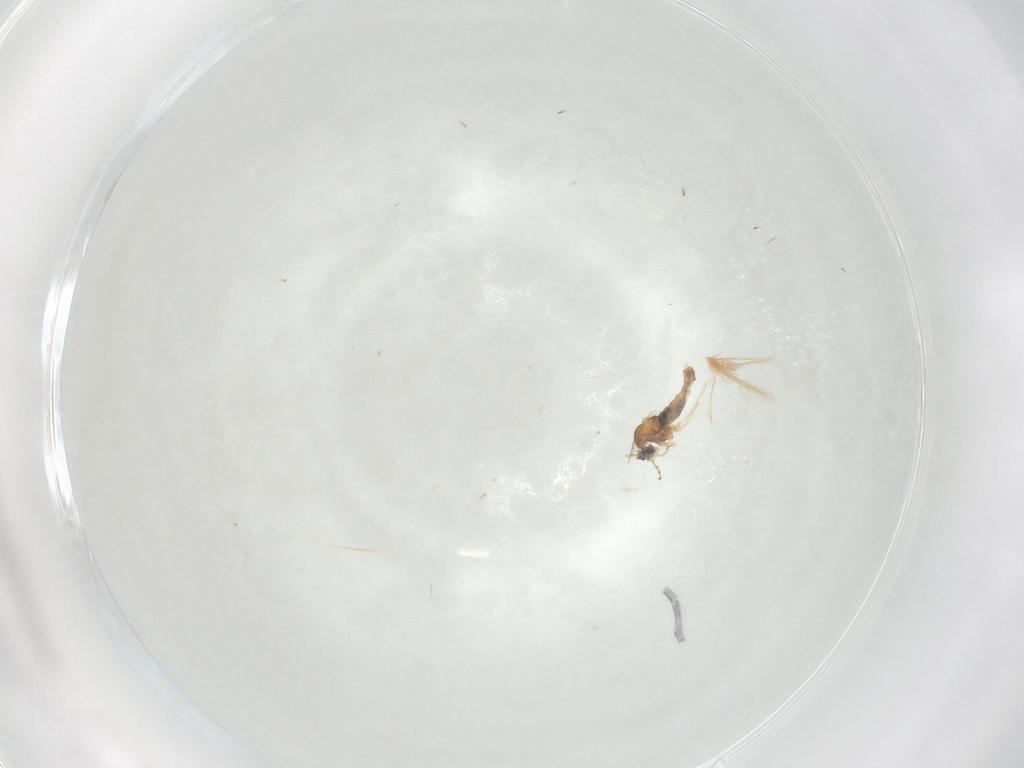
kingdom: Animalia
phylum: Arthropoda
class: Insecta
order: Diptera
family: Cecidomyiidae
